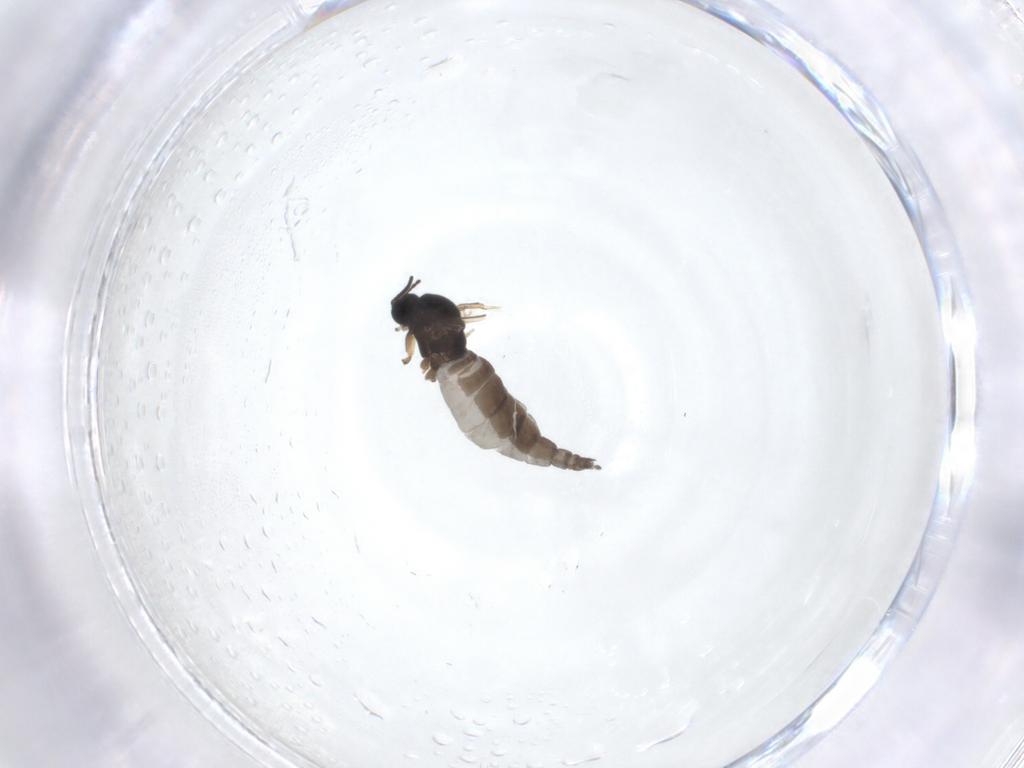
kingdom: Animalia
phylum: Arthropoda
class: Insecta
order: Diptera
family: Sciaridae
